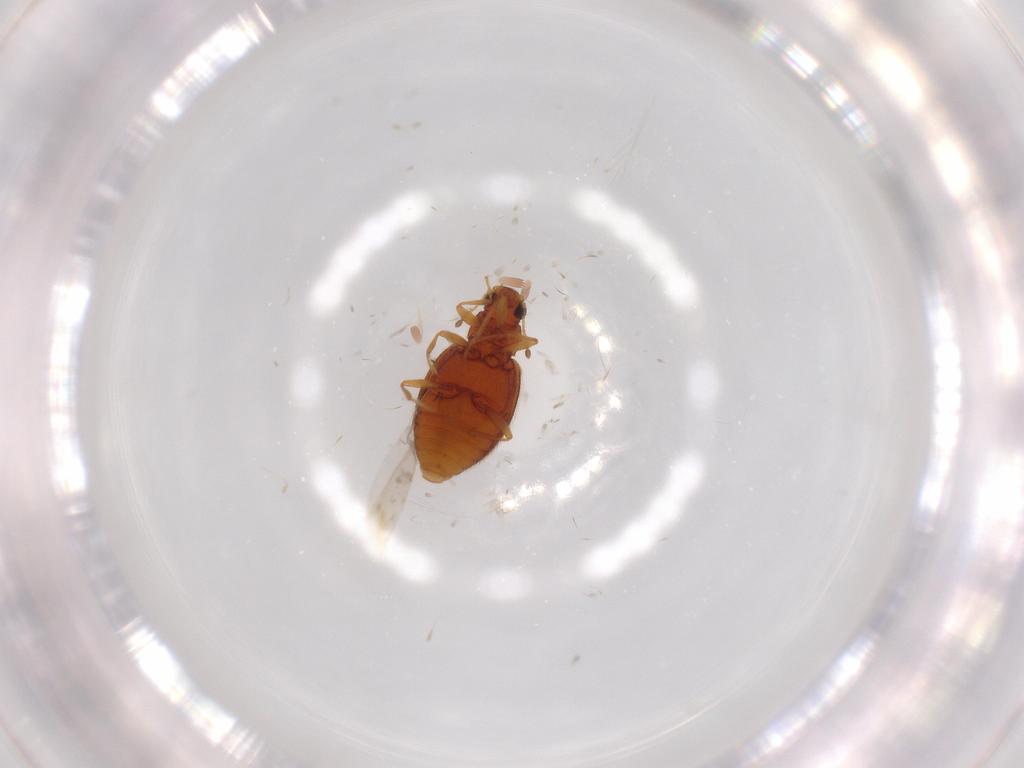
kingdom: Animalia
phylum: Arthropoda
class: Insecta
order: Coleoptera
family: Latridiidae
